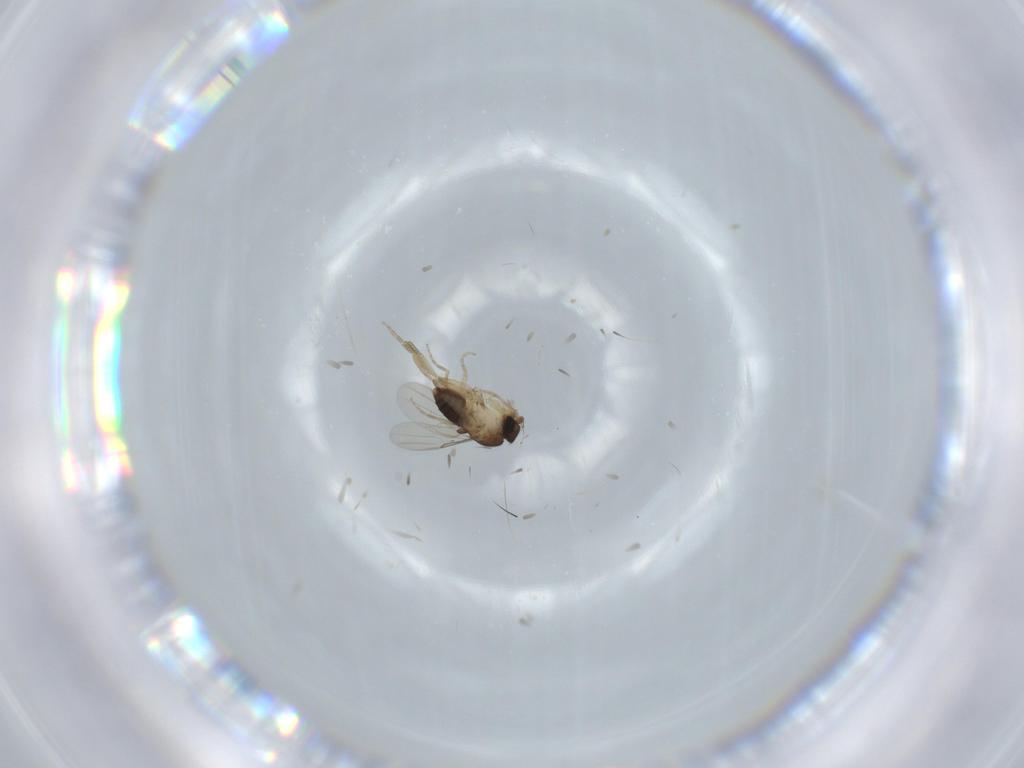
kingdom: Animalia
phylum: Arthropoda
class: Insecta
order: Diptera
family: Phoridae
